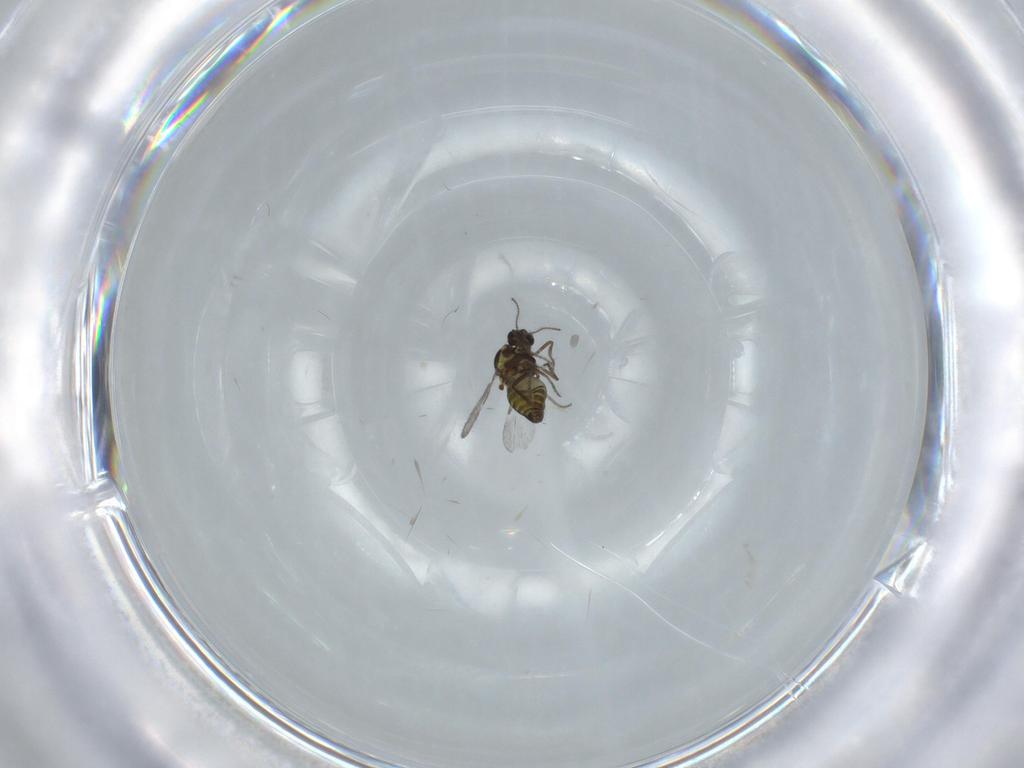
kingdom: Animalia
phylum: Arthropoda
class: Insecta
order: Diptera
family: Ceratopogonidae
